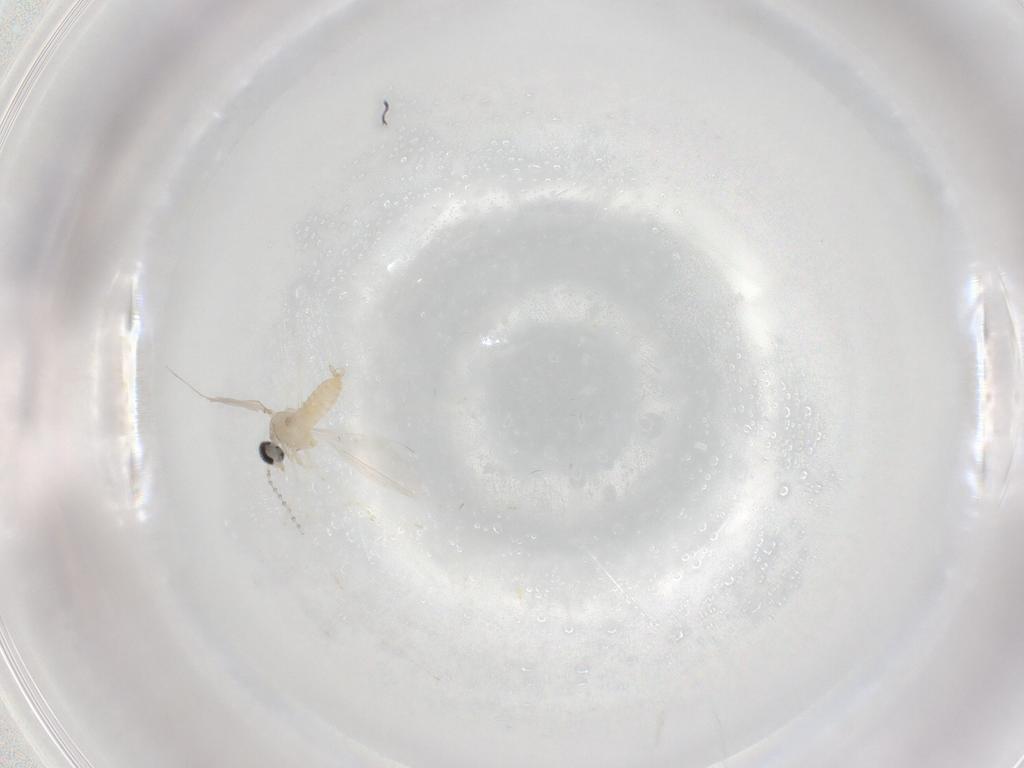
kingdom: Animalia
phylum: Arthropoda
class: Insecta
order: Diptera
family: Cecidomyiidae
